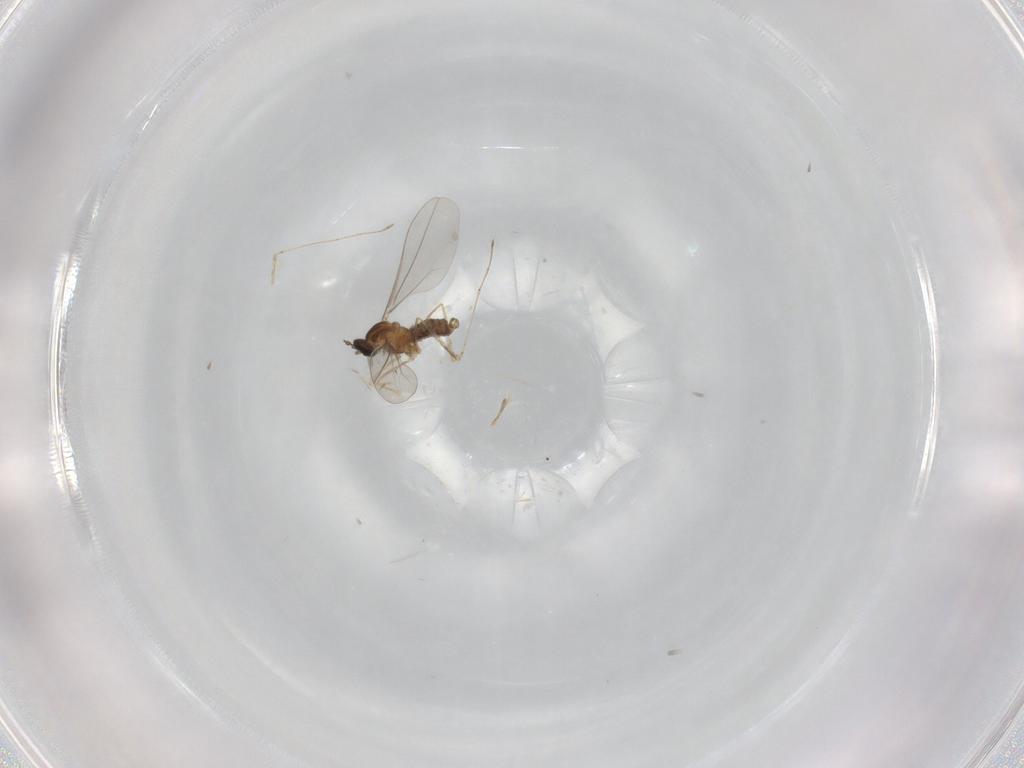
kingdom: Animalia
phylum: Arthropoda
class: Insecta
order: Diptera
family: Cecidomyiidae
